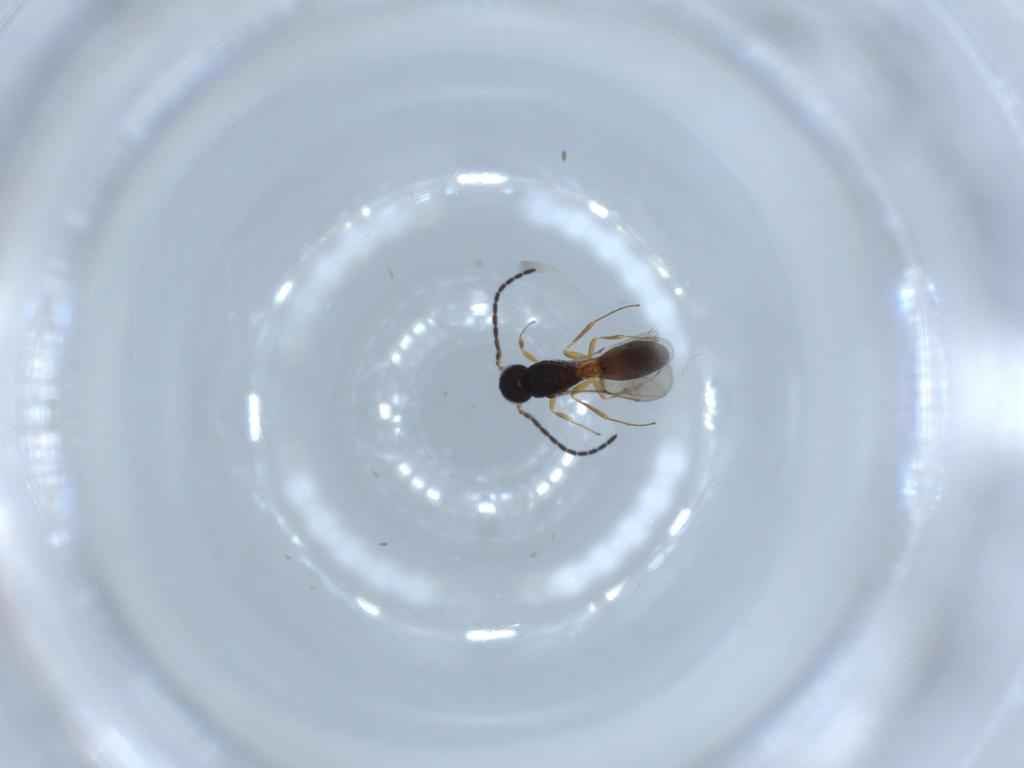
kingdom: Animalia
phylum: Arthropoda
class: Insecta
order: Hymenoptera
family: Scelionidae
